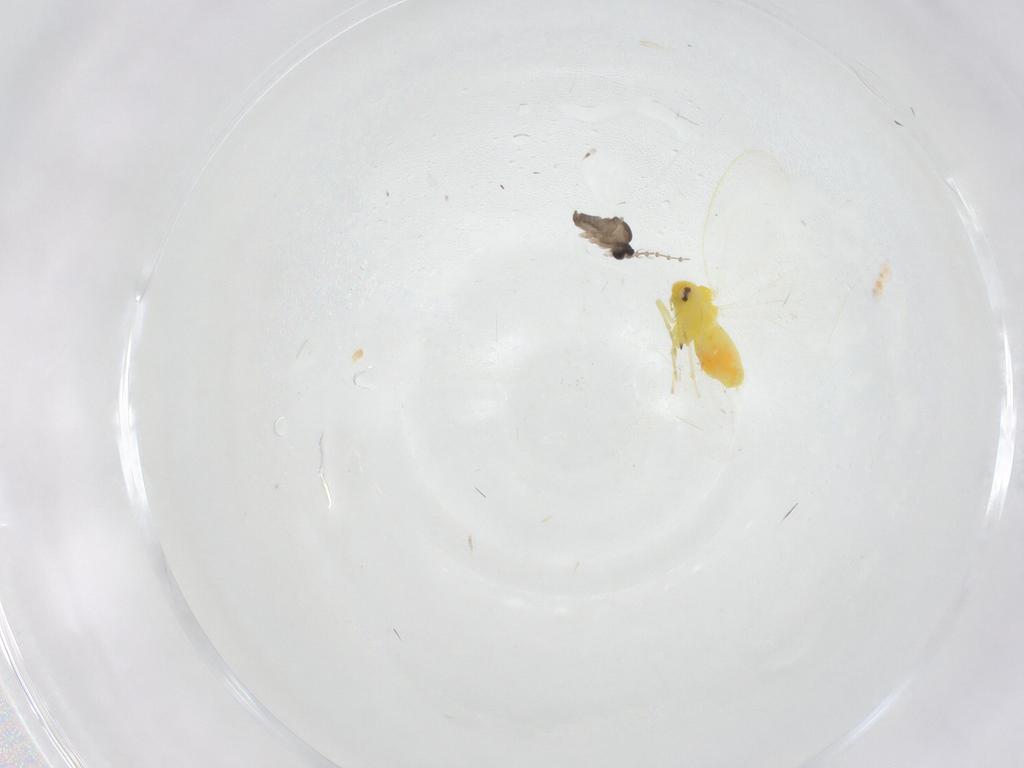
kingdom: Animalia
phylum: Arthropoda
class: Insecta
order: Diptera
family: Cecidomyiidae
